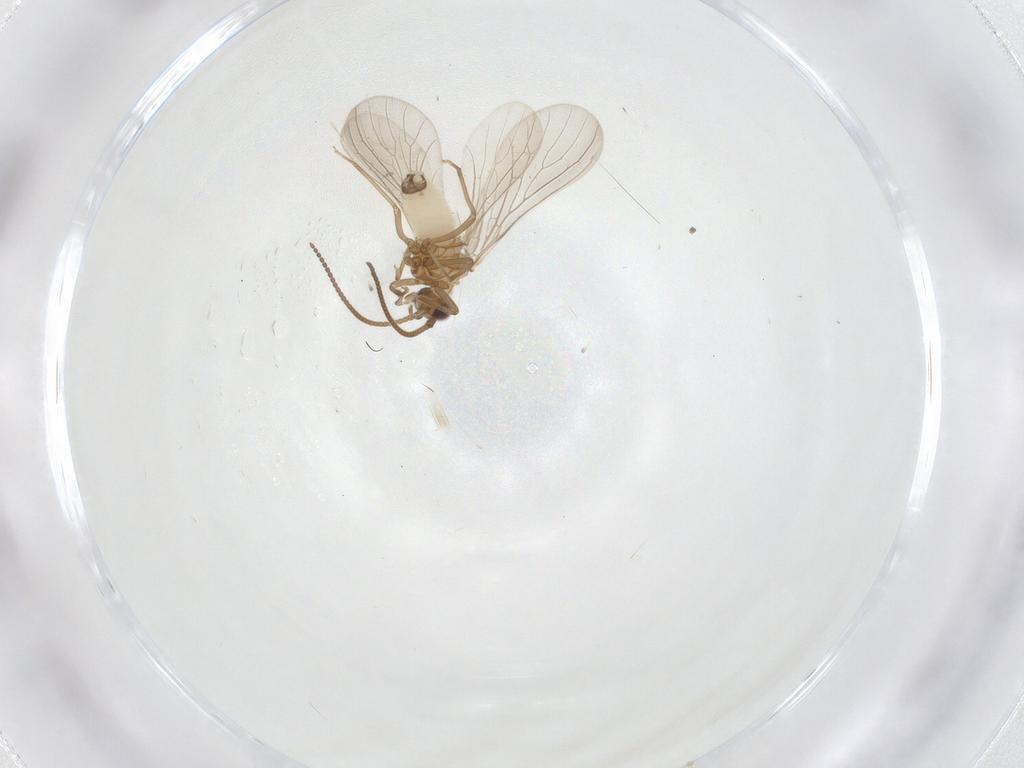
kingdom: Animalia
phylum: Arthropoda
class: Insecta
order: Neuroptera
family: Coniopterygidae
